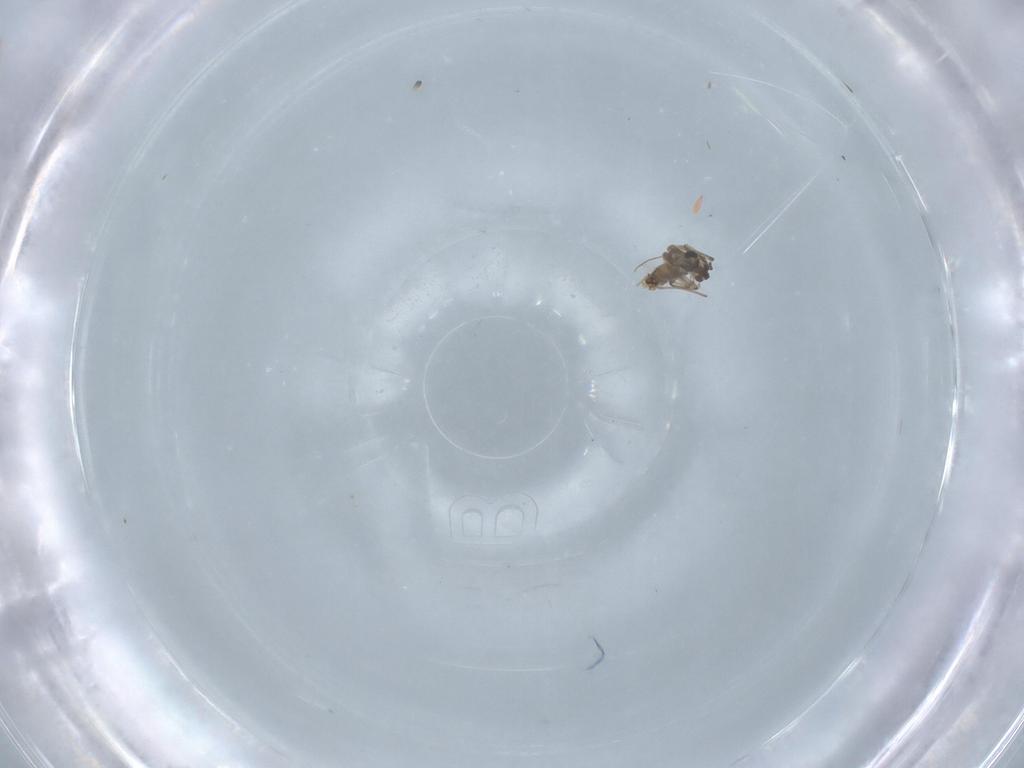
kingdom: Animalia
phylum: Arthropoda
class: Insecta
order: Diptera
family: Chironomidae
